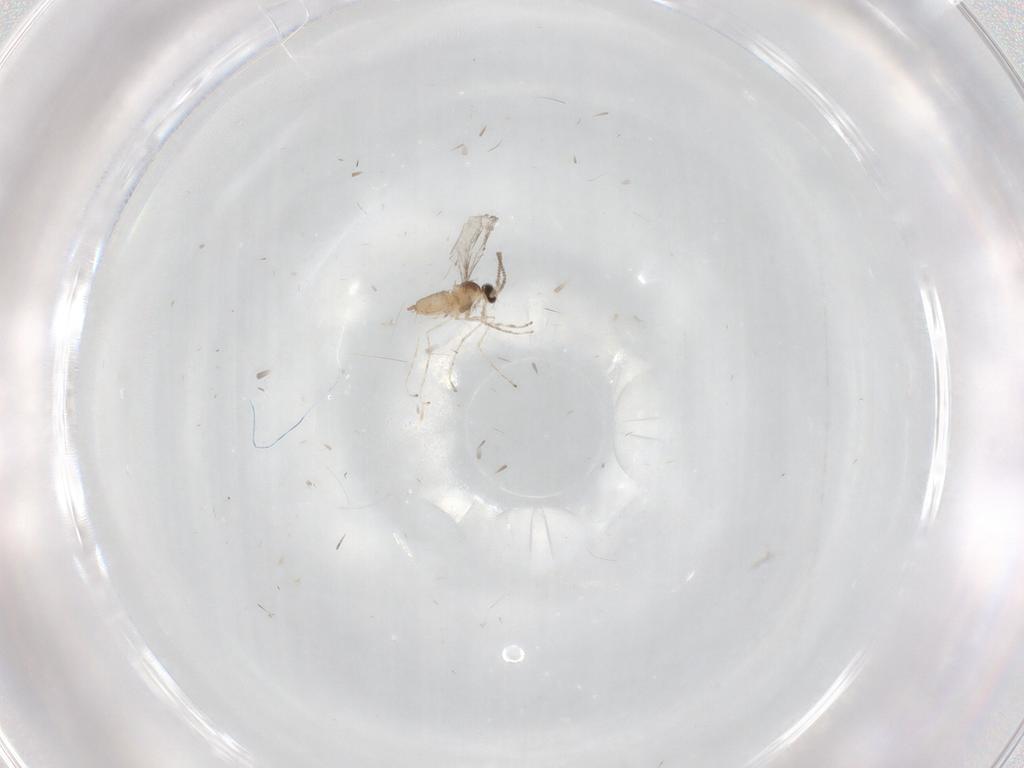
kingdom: Animalia
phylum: Arthropoda
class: Insecta
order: Diptera
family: Cecidomyiidae
